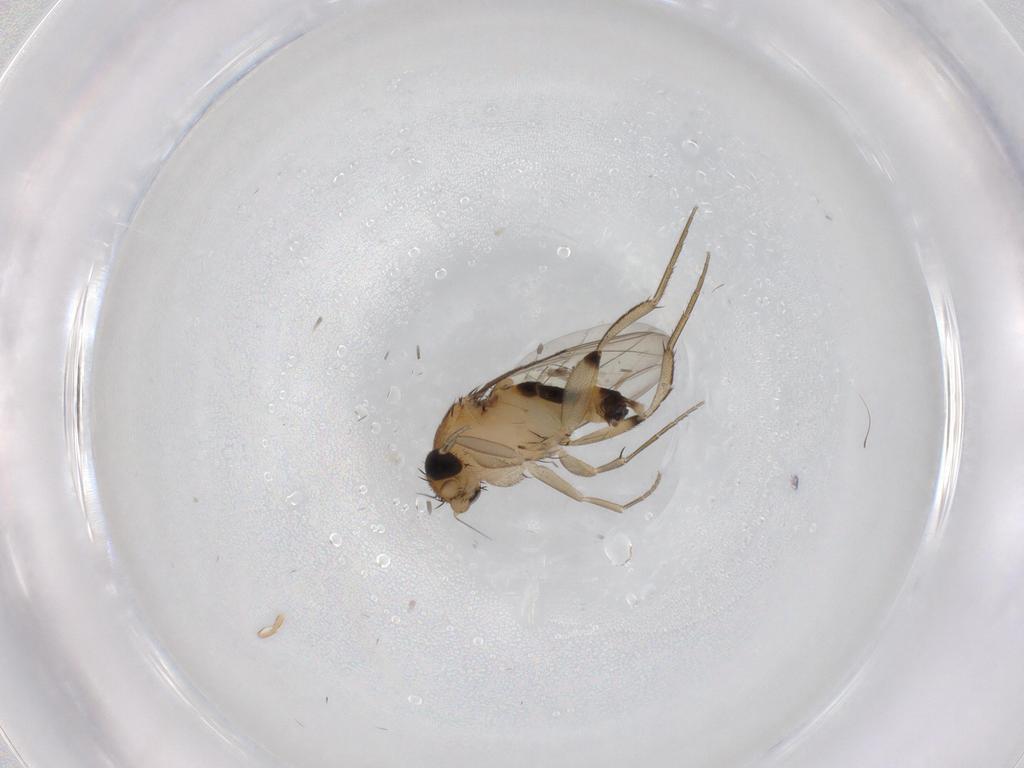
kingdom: Animalia
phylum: Arthropoda
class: Insecta
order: Diptera
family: Phoridae
